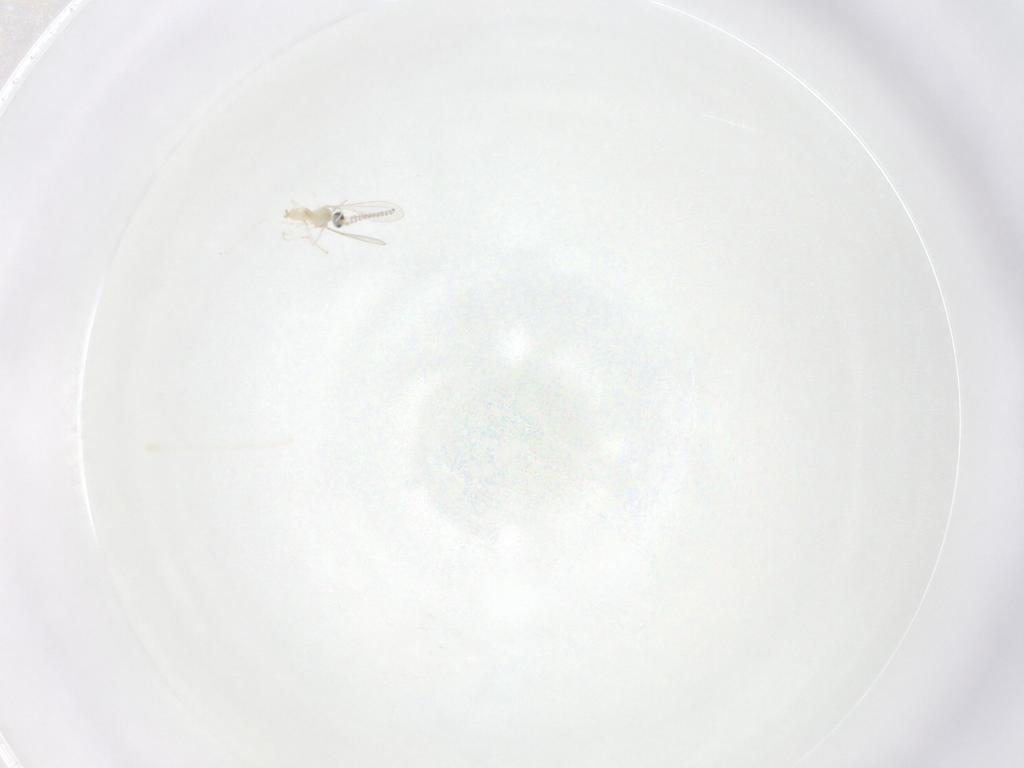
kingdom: Animalia
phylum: Arthropoda
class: Insecta
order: Diptera
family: Cecidomyiidae
